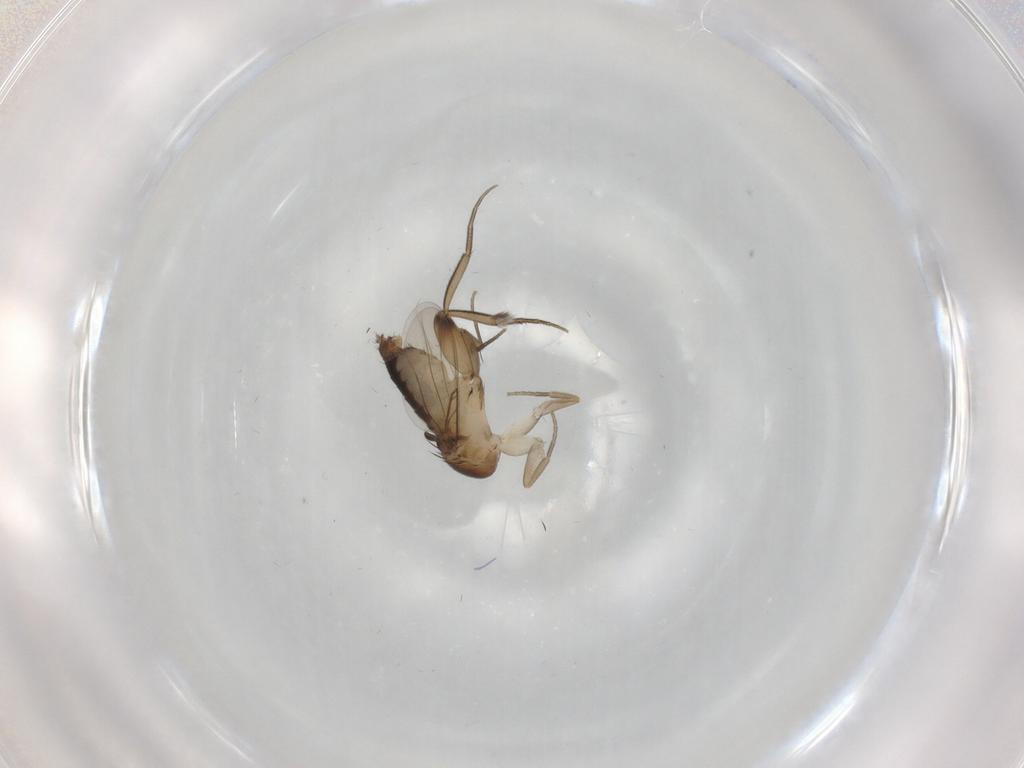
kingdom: Animalia
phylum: Arthropoda
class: Insecta
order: Diptera
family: Phoridae
